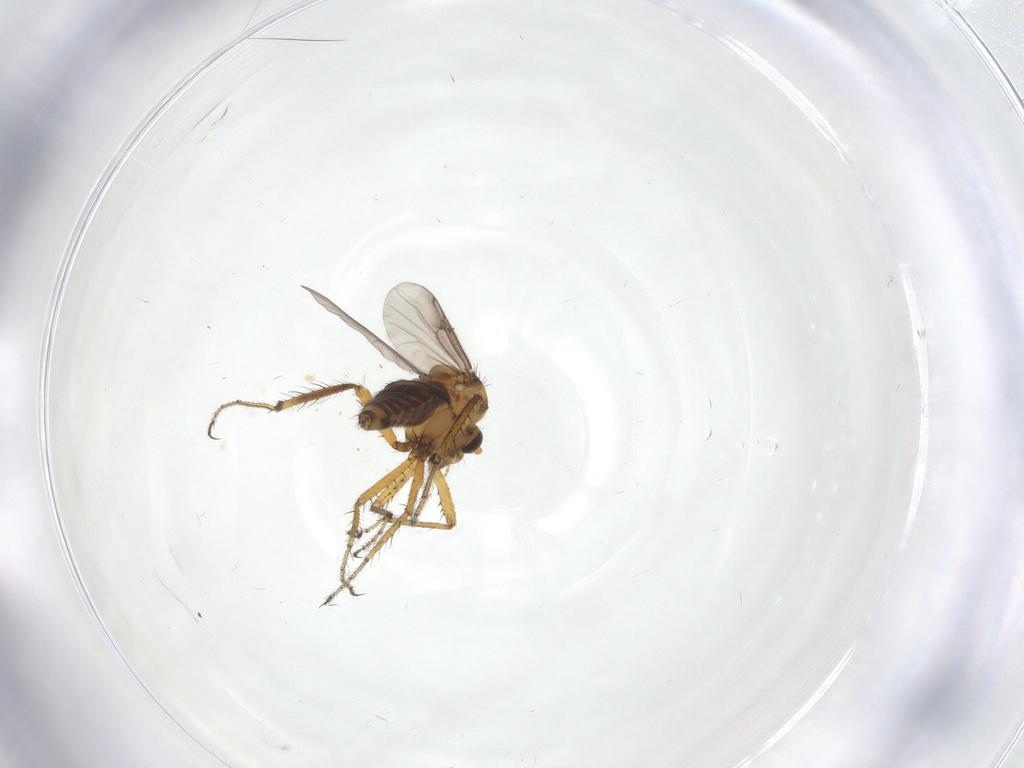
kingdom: Animalia
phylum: Arthropoda
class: Insecta
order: Diptera
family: Ceratopogonidae
